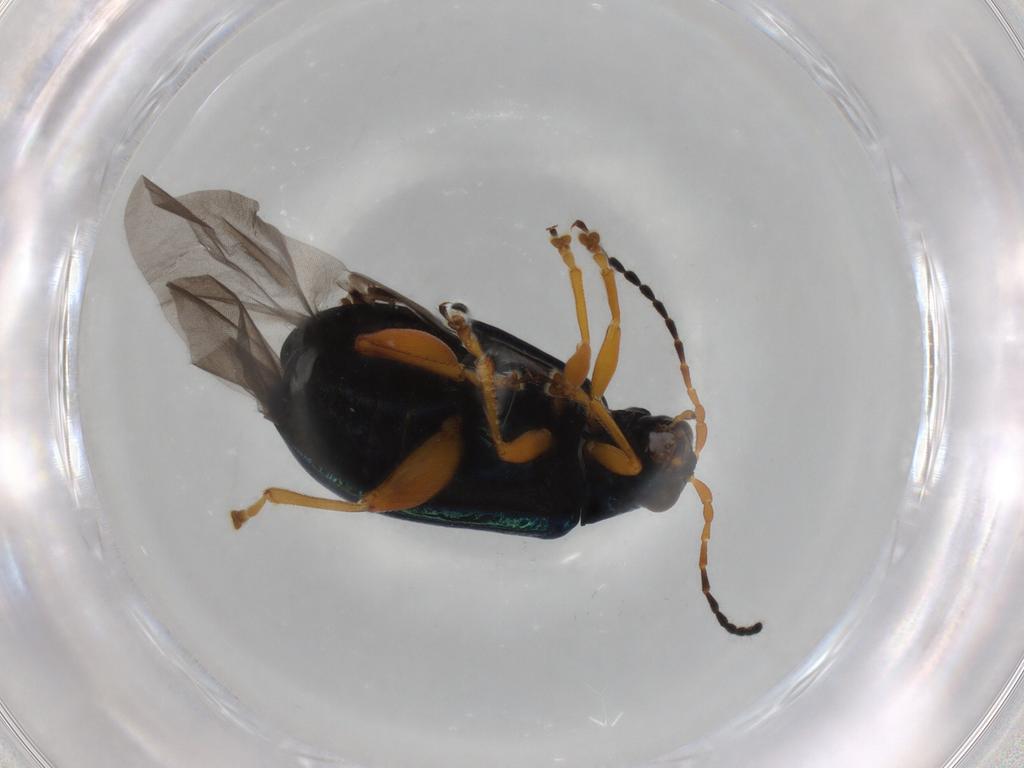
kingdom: Animalia
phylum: Arthropoda
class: Insecta
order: Coleoptera
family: Chrysomelidae
